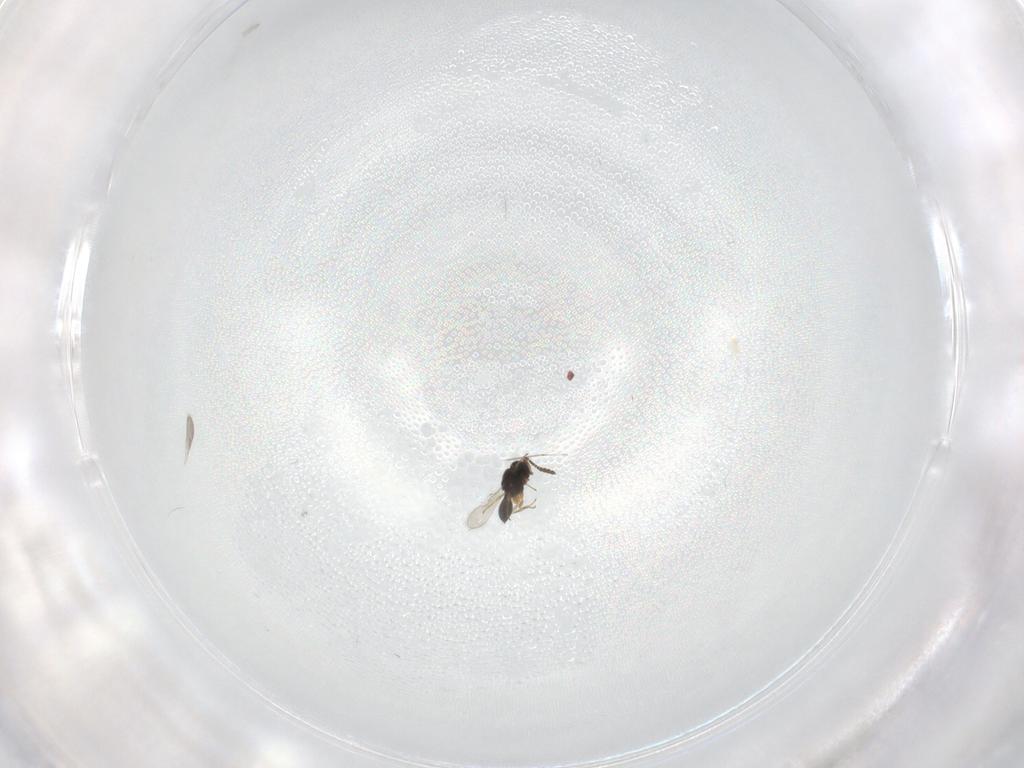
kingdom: Animalia
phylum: Arthropoda
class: Insecta
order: Hymenoptera
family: Scelionidae
